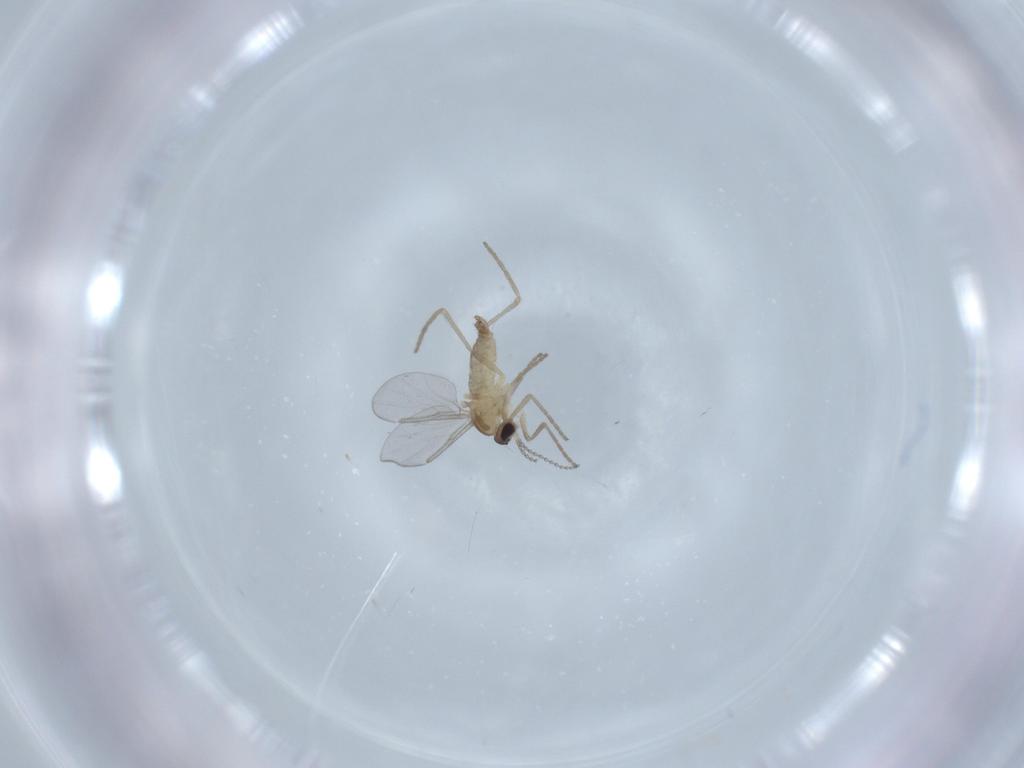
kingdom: Animalia
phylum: Arthropoda
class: Insecta
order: Diptera
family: Cecidomyiidae
